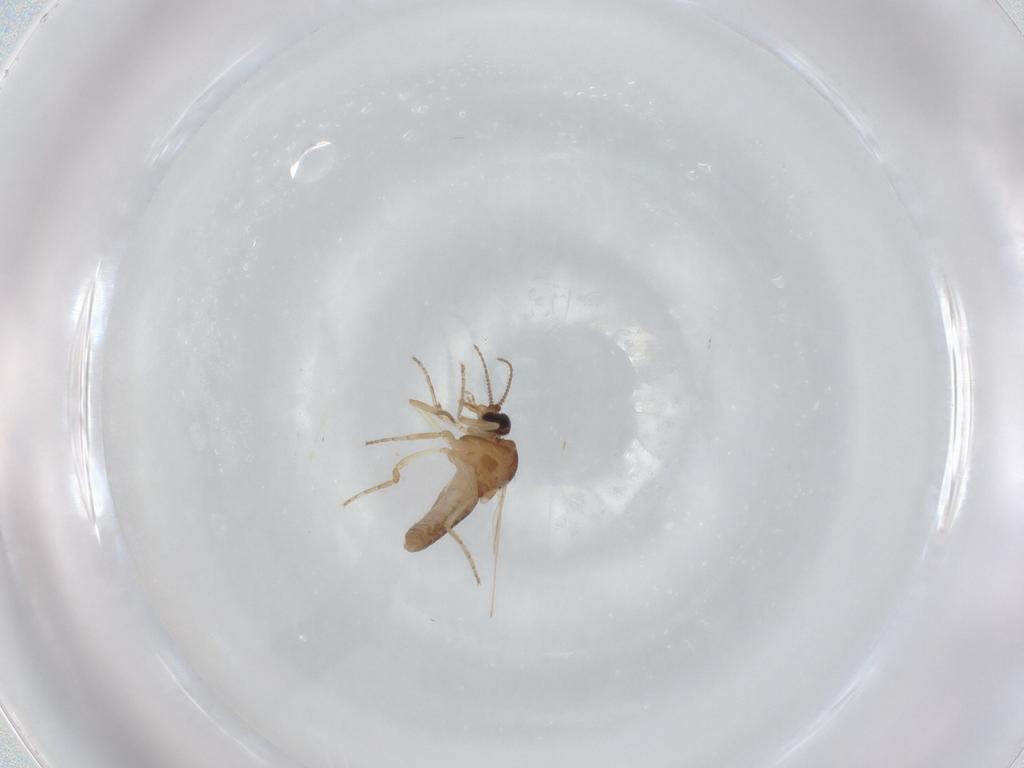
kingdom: Animalia
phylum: Arthropoda
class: Insecta
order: Diptera
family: Ceratopogonidae
